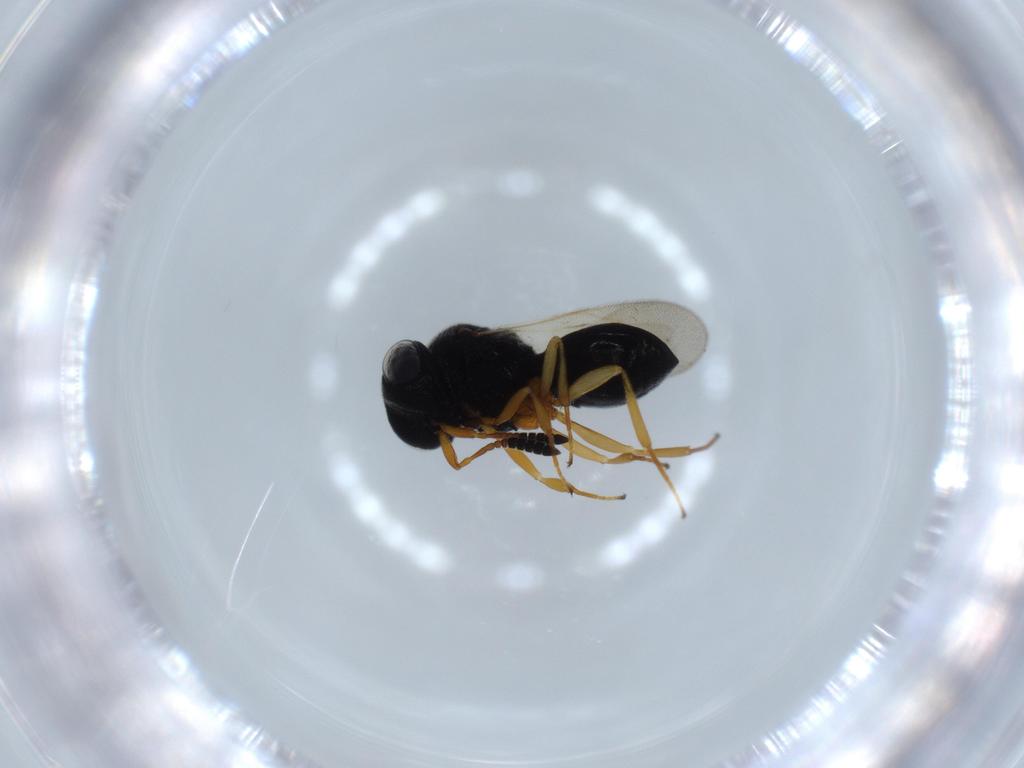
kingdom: Animalia
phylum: Arthropoda
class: Insecta
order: Hymenoptera
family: Scelionidae
